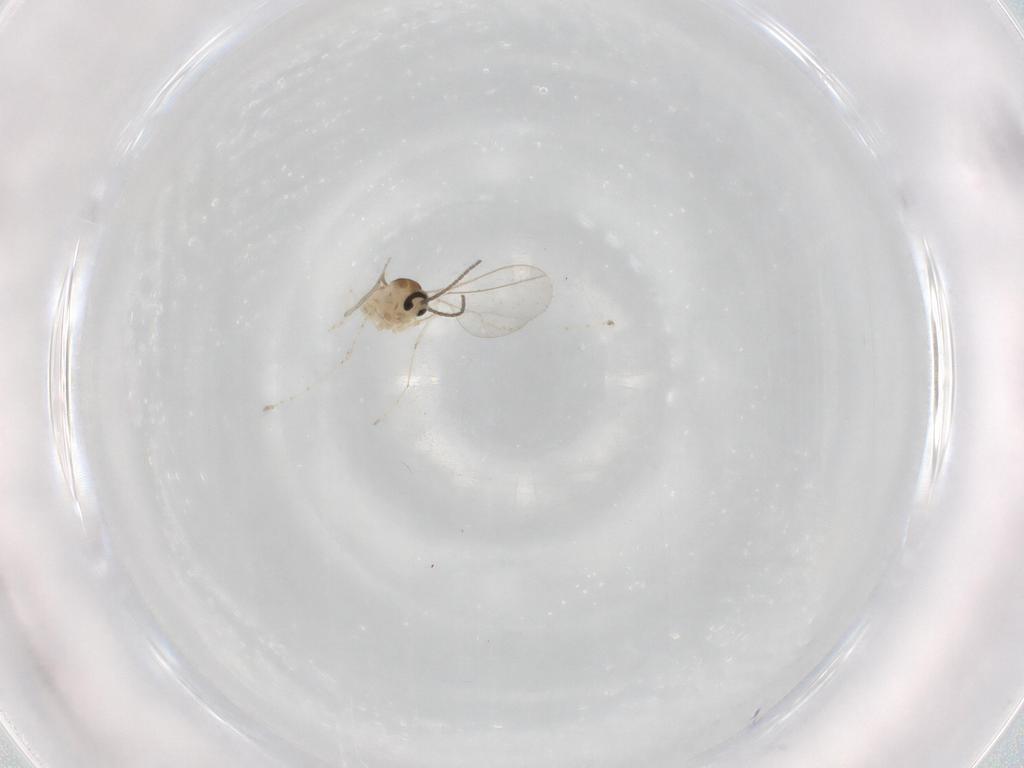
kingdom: Animalia
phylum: Arthropoda
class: Insecta
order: Diptera
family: Cecidomyiidae
